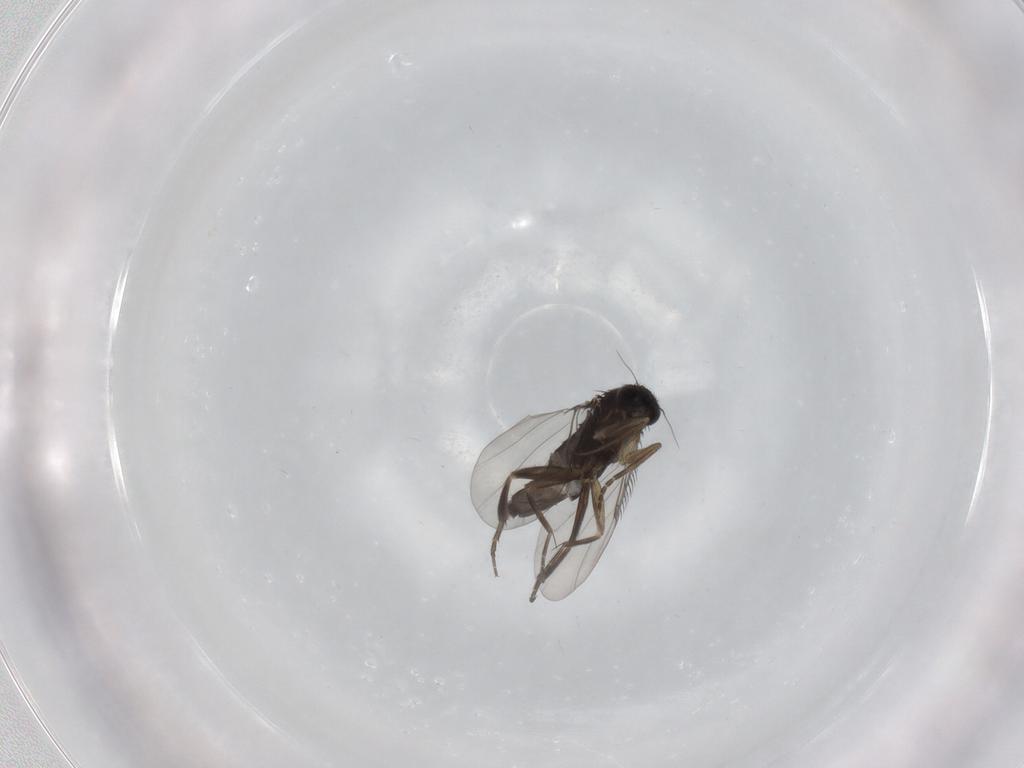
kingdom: Animalia
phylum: Arthropoda
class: Insecta
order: Diptera
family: Phoridae
